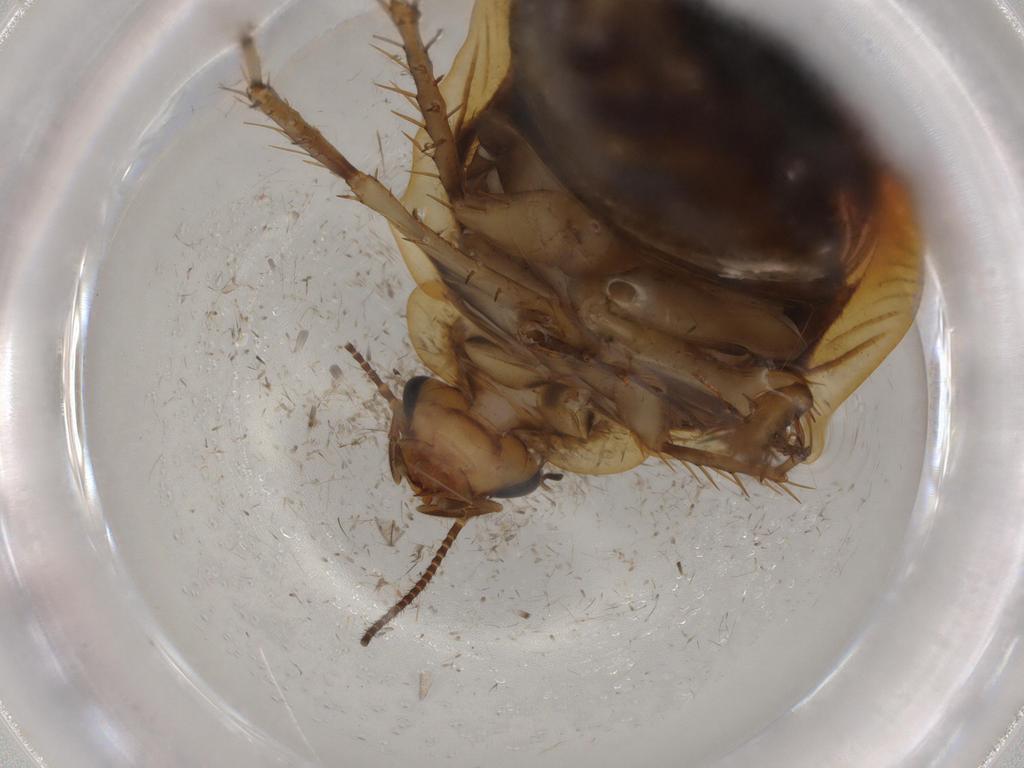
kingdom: Animalia
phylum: Arthropoda
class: Insecta
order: Blattodea
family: Ectobiidae
